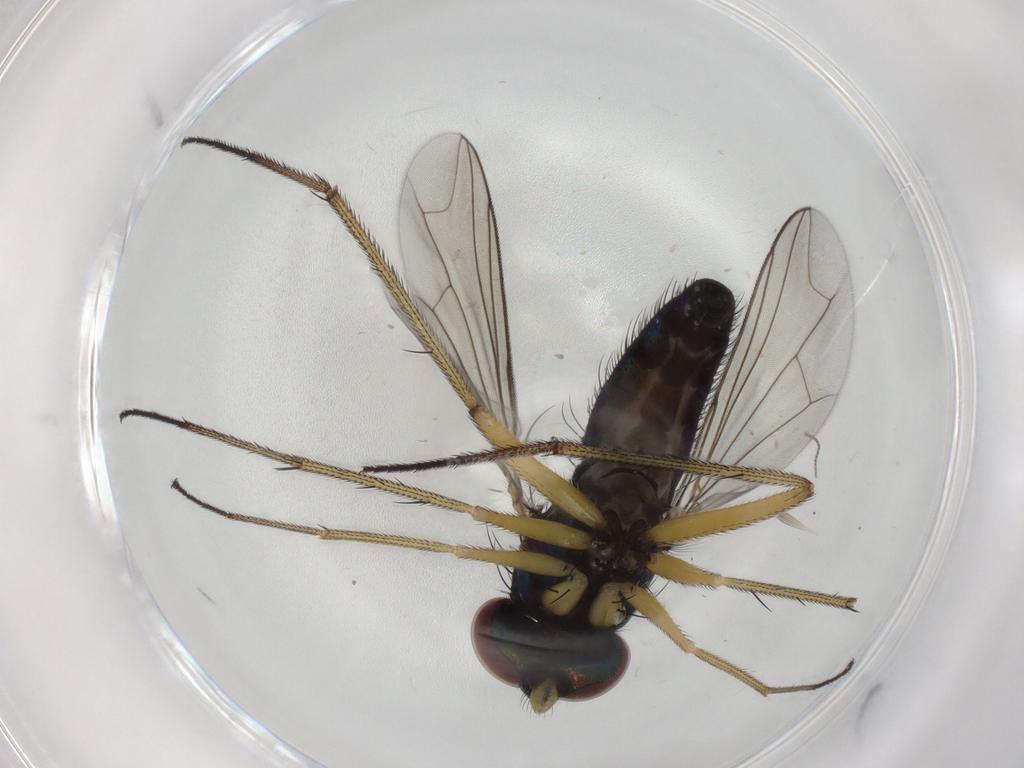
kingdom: Animalia
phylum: Arthropoda
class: Insecta
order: Diptera
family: Dolichopodidae
